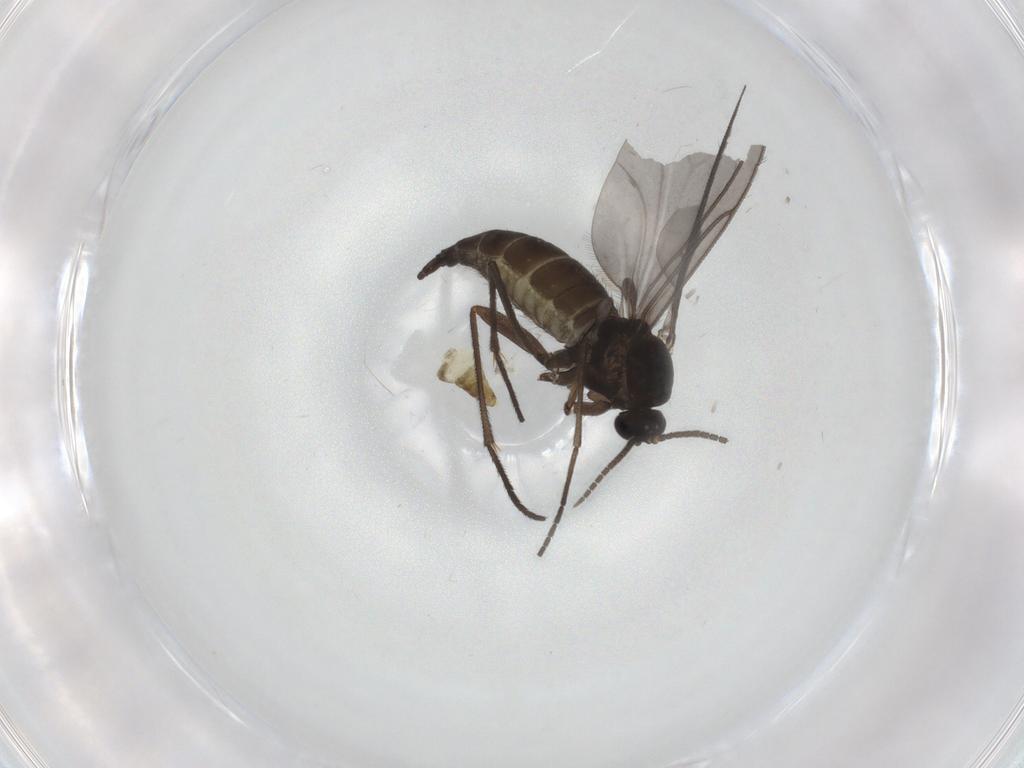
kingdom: Animalia
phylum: Arthropoda
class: Insecta
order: Diptera
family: Chironomidae
